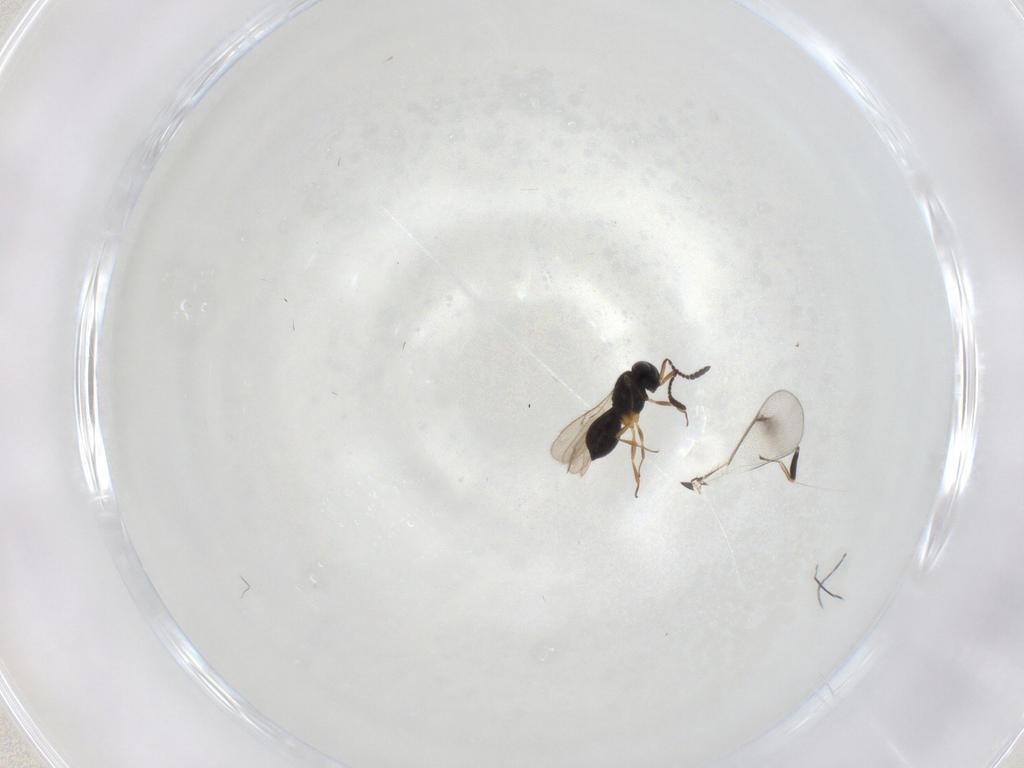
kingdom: Animalia
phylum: Arthropoda
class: Insecta
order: Hymenoptera
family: Scelionidae
